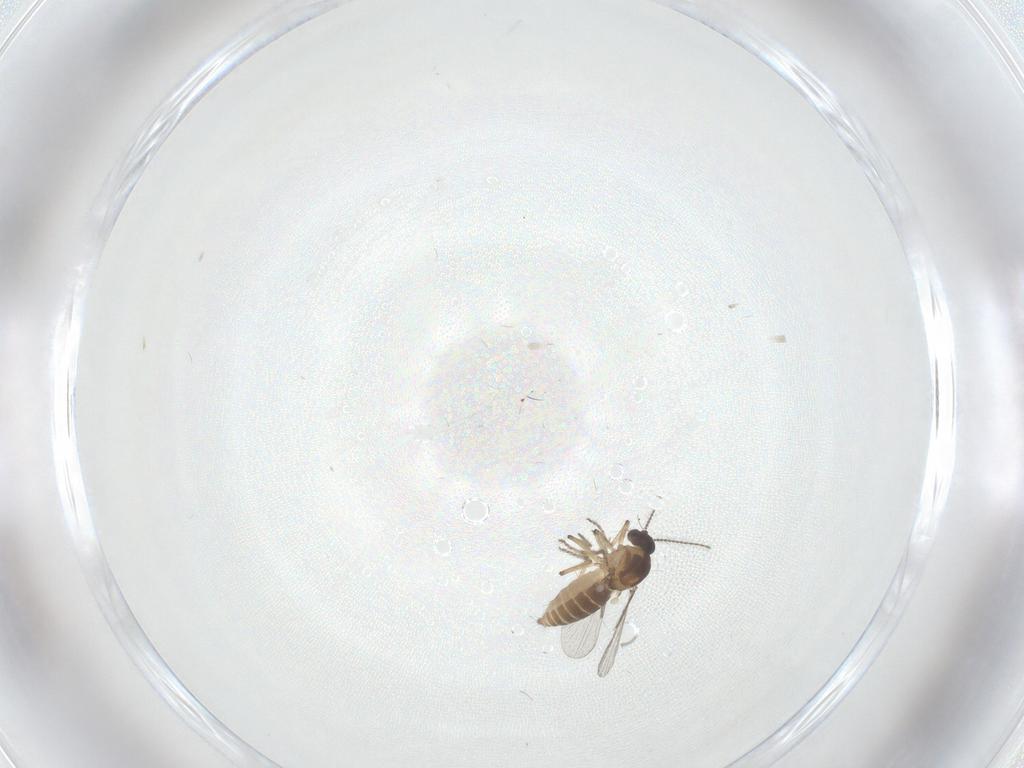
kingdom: Animalia
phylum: Arthropoda
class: Insecta
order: Diptera
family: Ceratopogonidae
